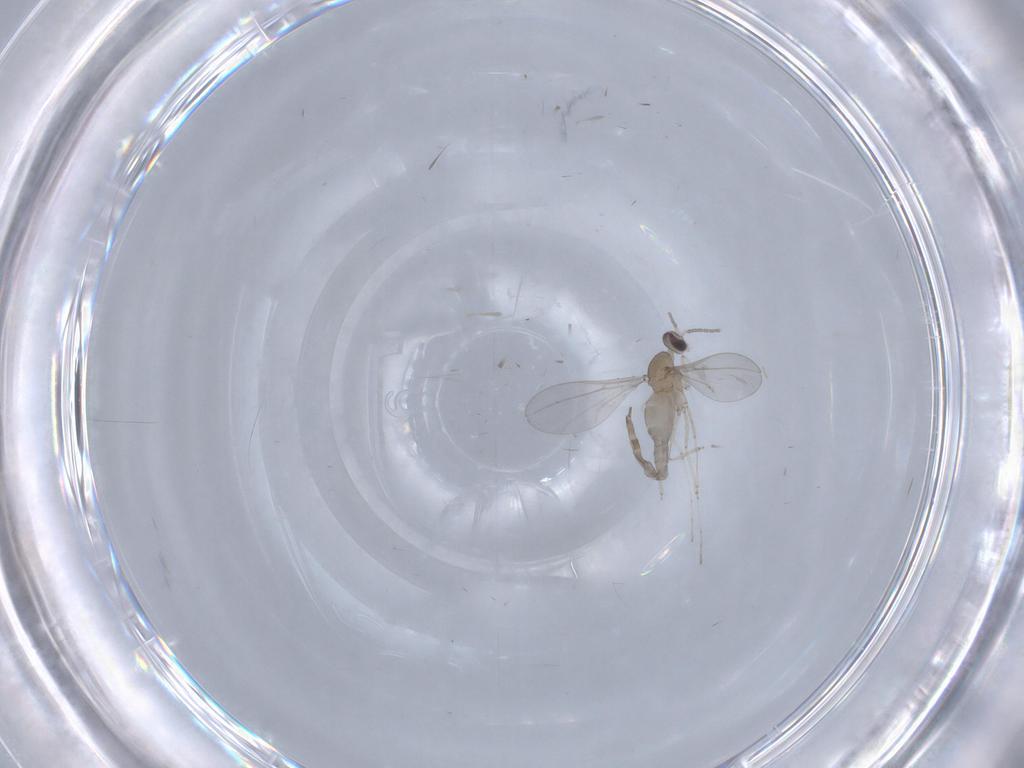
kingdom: Animalia
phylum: Arthropoda
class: Insecta
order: Diptera
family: Cecidomyiidae
